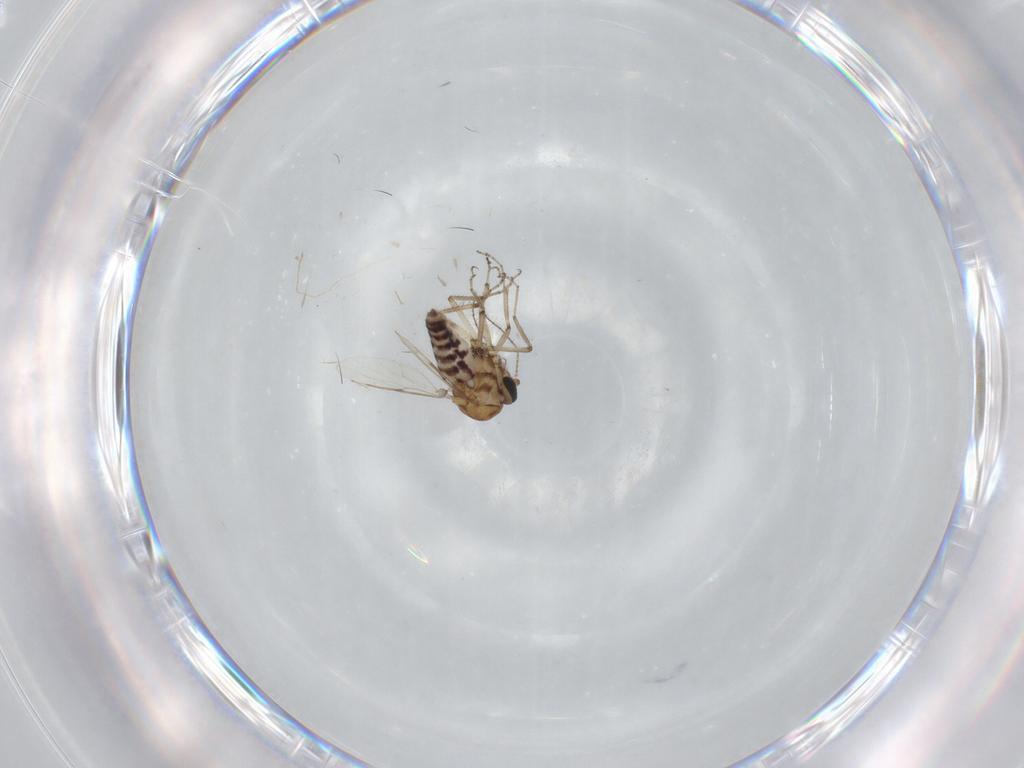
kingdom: Animalia
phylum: Arthropoda
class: Insecta
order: Diptera
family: Ceratopogonidae
